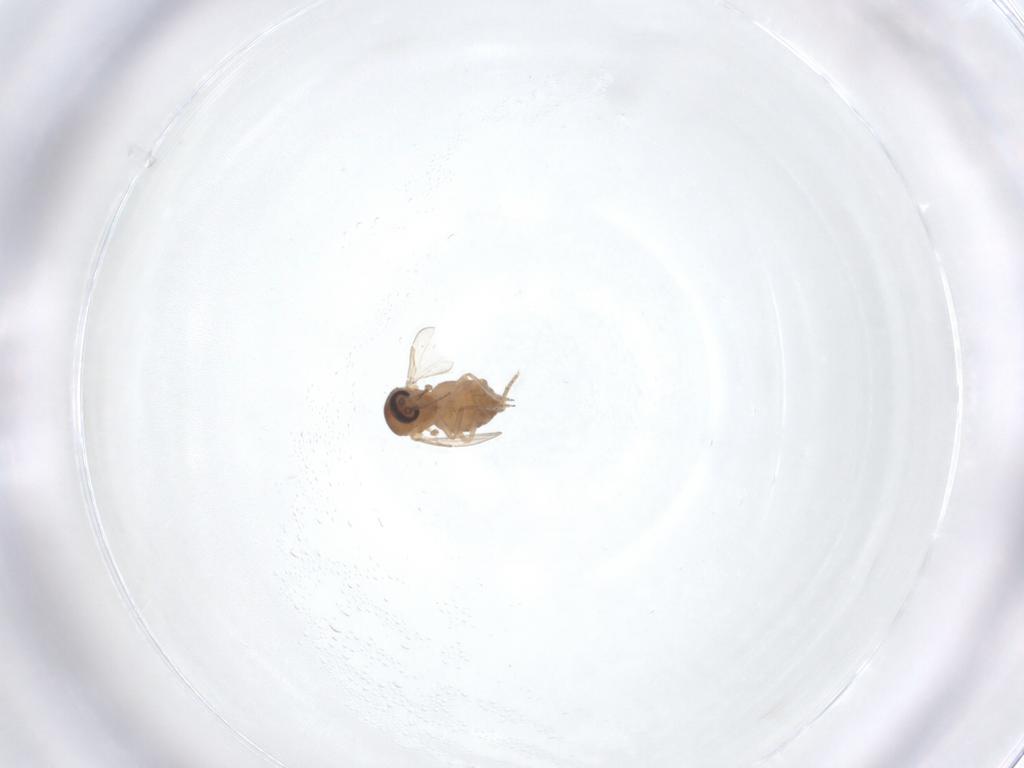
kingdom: Animalia
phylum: Arthropoda
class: Insecta
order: Diptera
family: Ceratopogonidae
